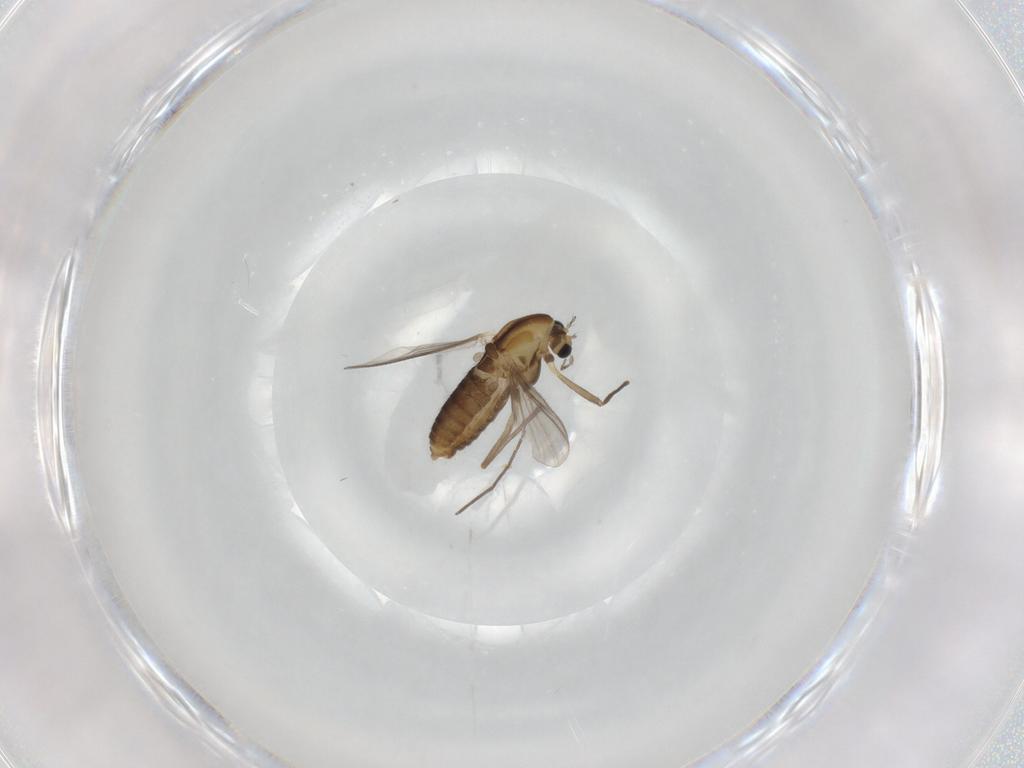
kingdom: Animalia
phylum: Arthropoda
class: Insecta
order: Diptera
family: Chironomidae
